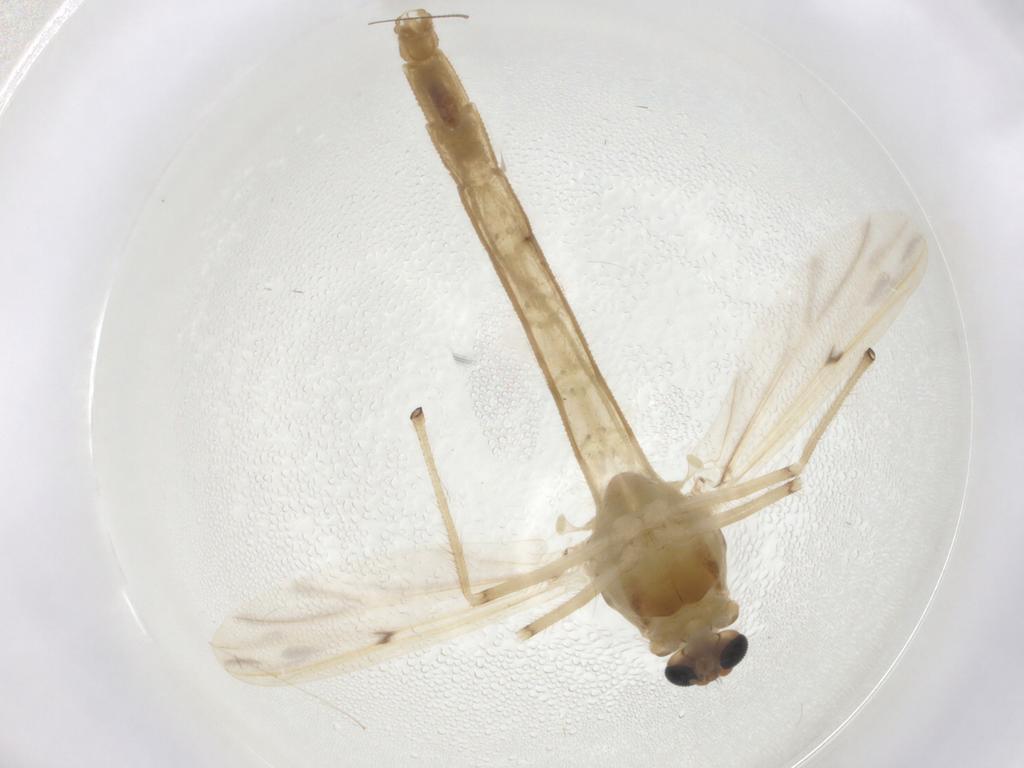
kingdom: Animalia
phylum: Arthropoda
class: Insecta
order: Diptera
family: Chironomidae
